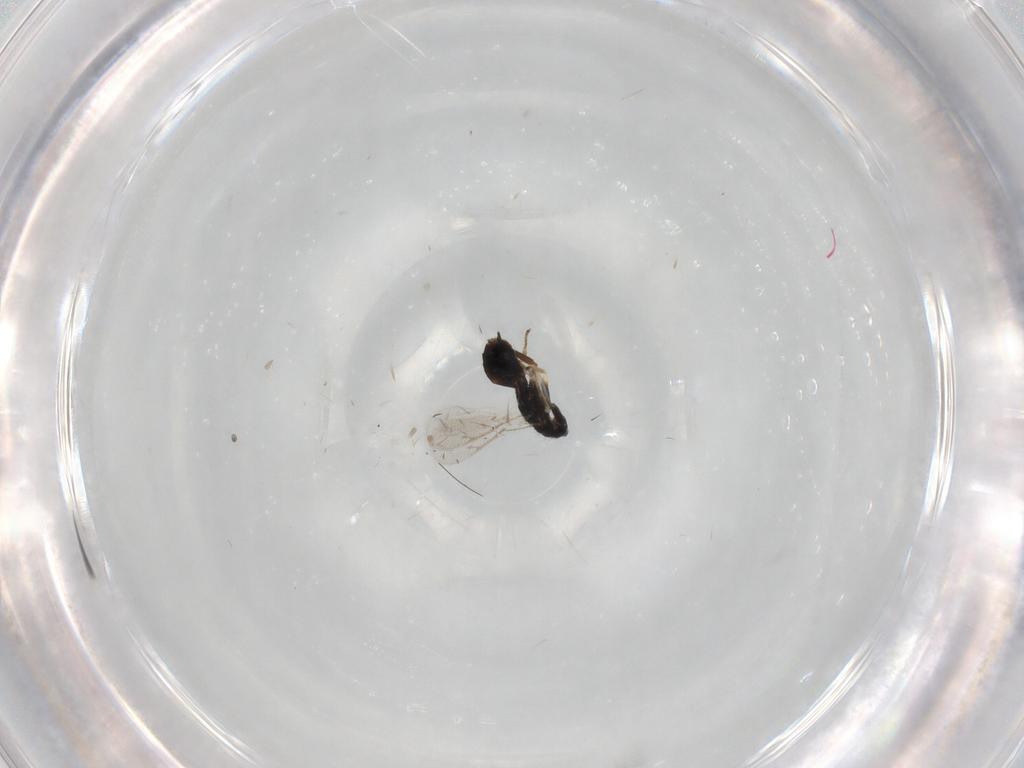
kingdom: Animalia
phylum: Arthropoda
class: Insecta
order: Hymenoptera
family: Pirenidae
